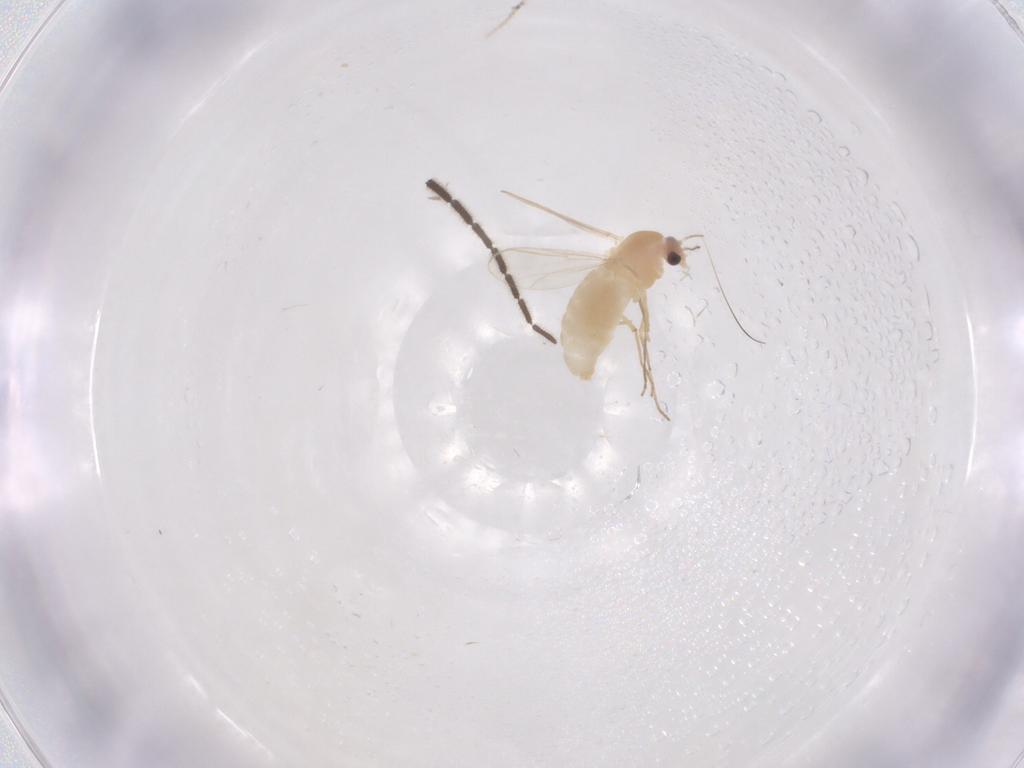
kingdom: Animalia
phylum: Arthropoda
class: Insecta
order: Diptera
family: Chironomidae
